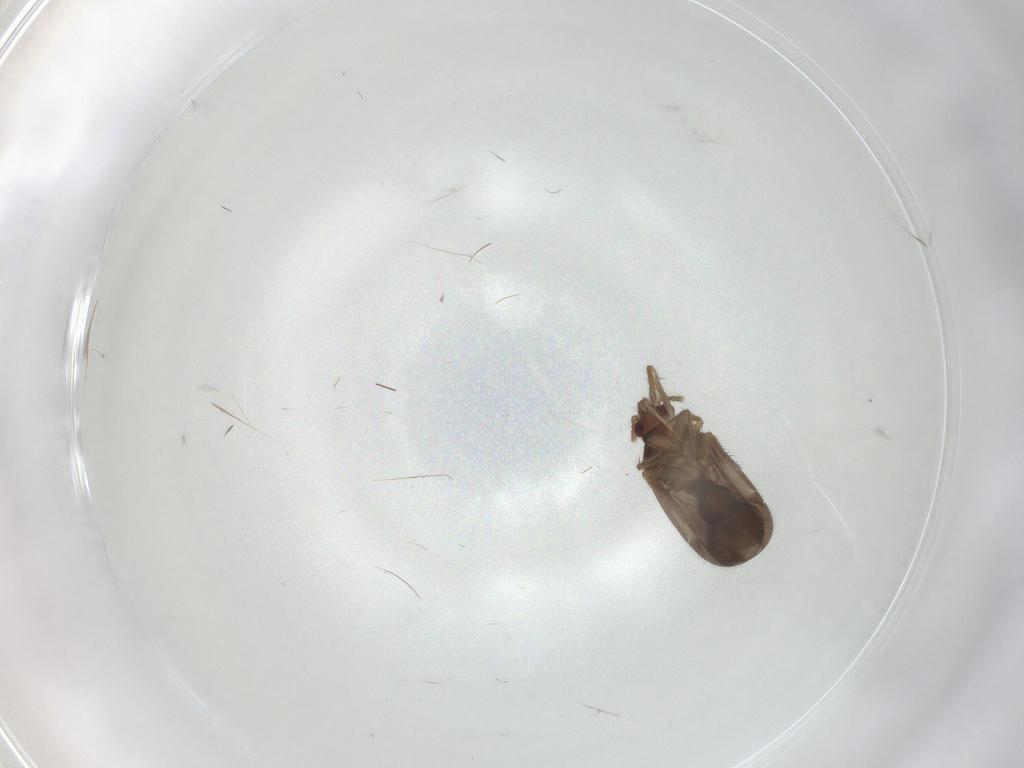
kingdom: Animalia
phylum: Arthropoda
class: Insecta
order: Hemiptera
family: Ceratocombidae
